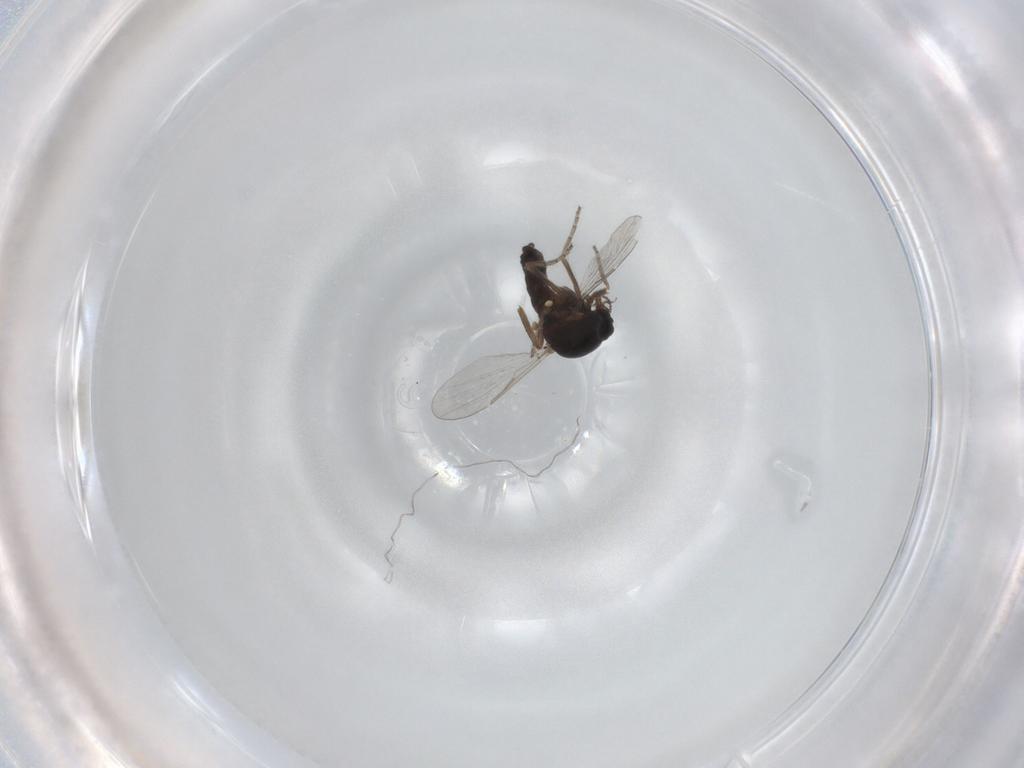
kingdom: Animalia
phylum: Arthropoda
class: Insecta
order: Diptera
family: Ceratopogonidae
